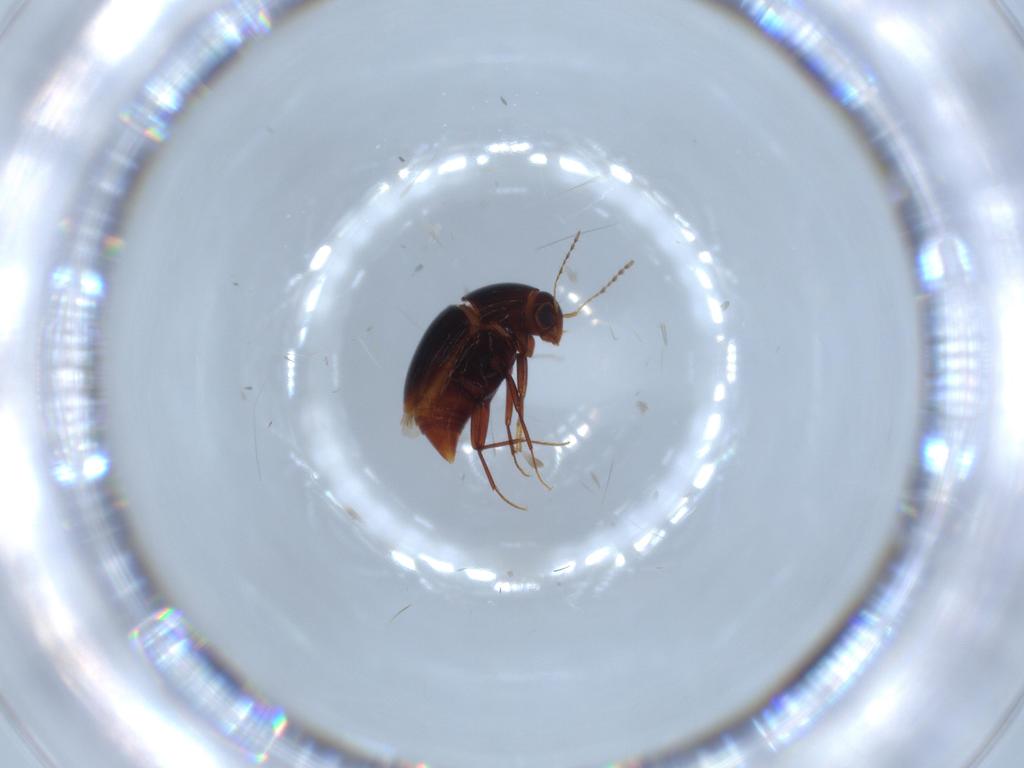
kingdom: Animalia
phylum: Arthropoda
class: Insecta
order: Coleoptera
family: Staphylinidae
